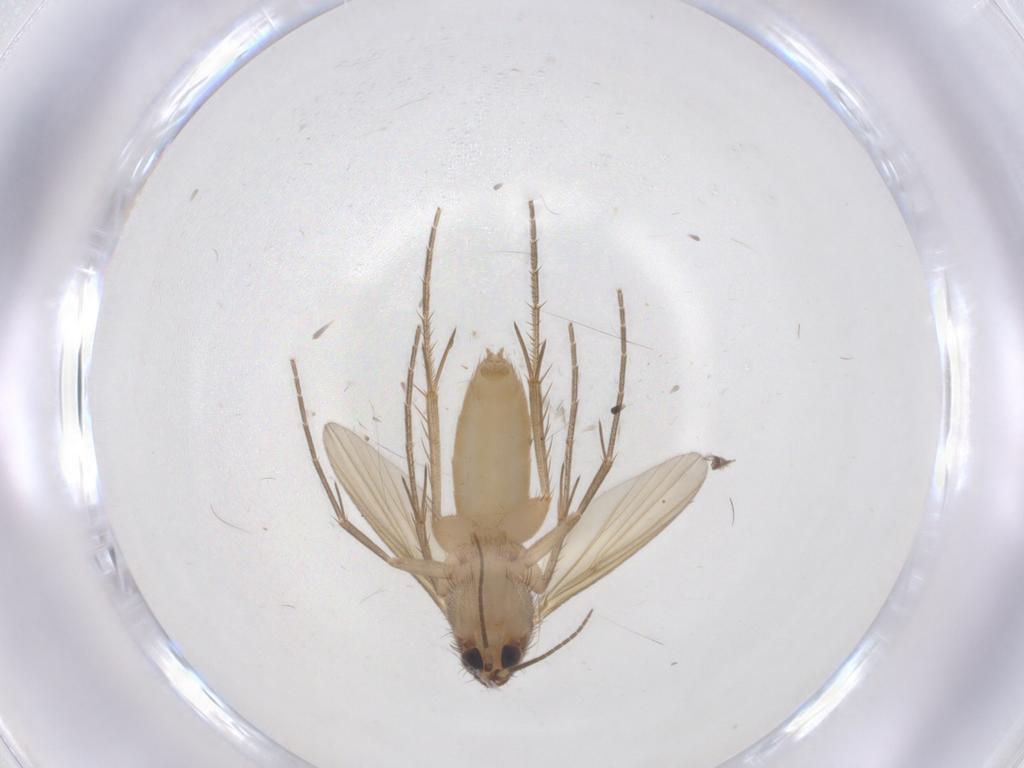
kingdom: Animalia
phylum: Arthropoda
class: Insecta
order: Diptera
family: Mycetophilidae
